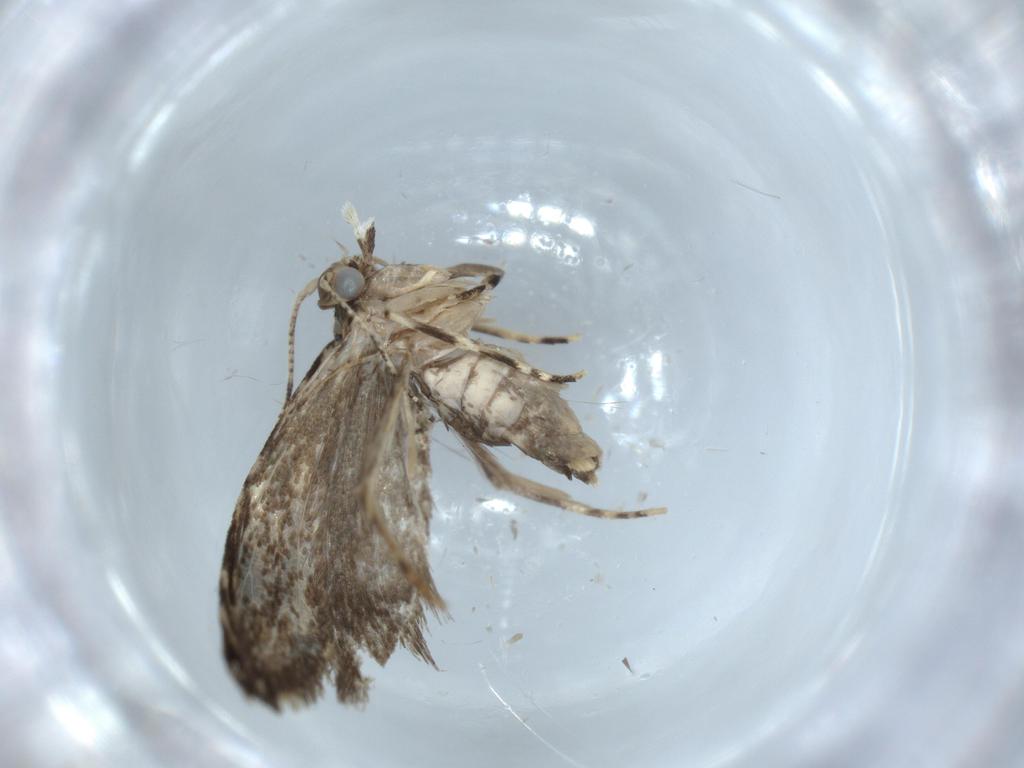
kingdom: Animalia
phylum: Arthropoda
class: Insecta
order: Lepidoptera
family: Tineidae
